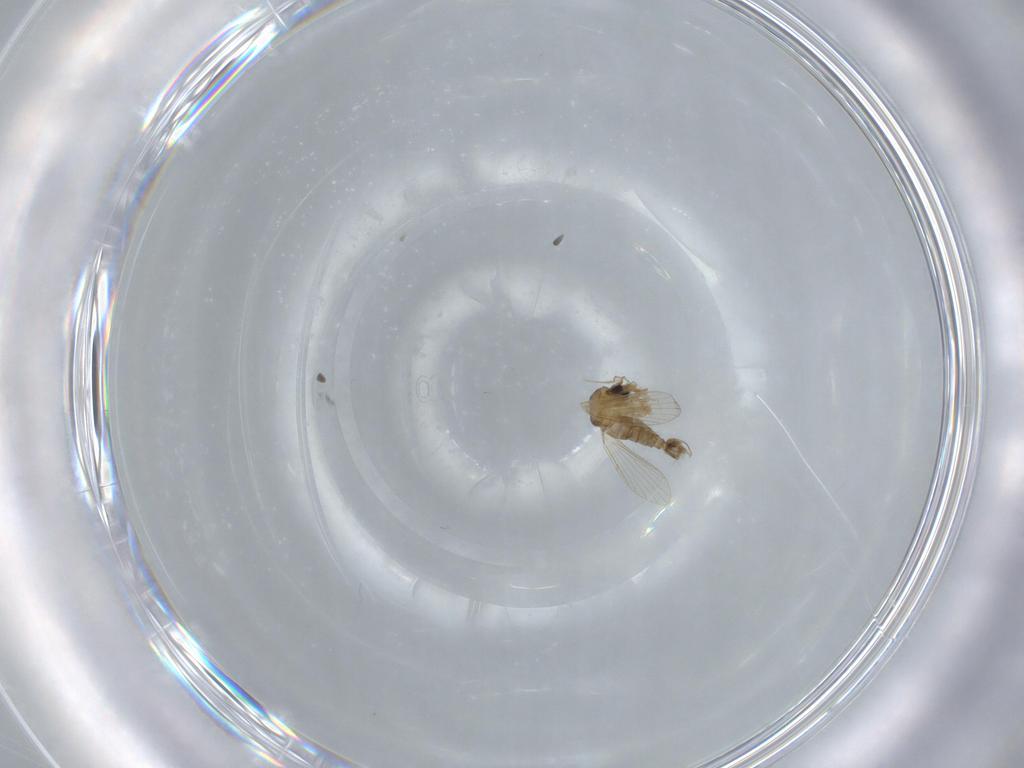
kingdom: Animalia
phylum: Arthropoda
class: Insecta
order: Diptera
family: Psychodidae
